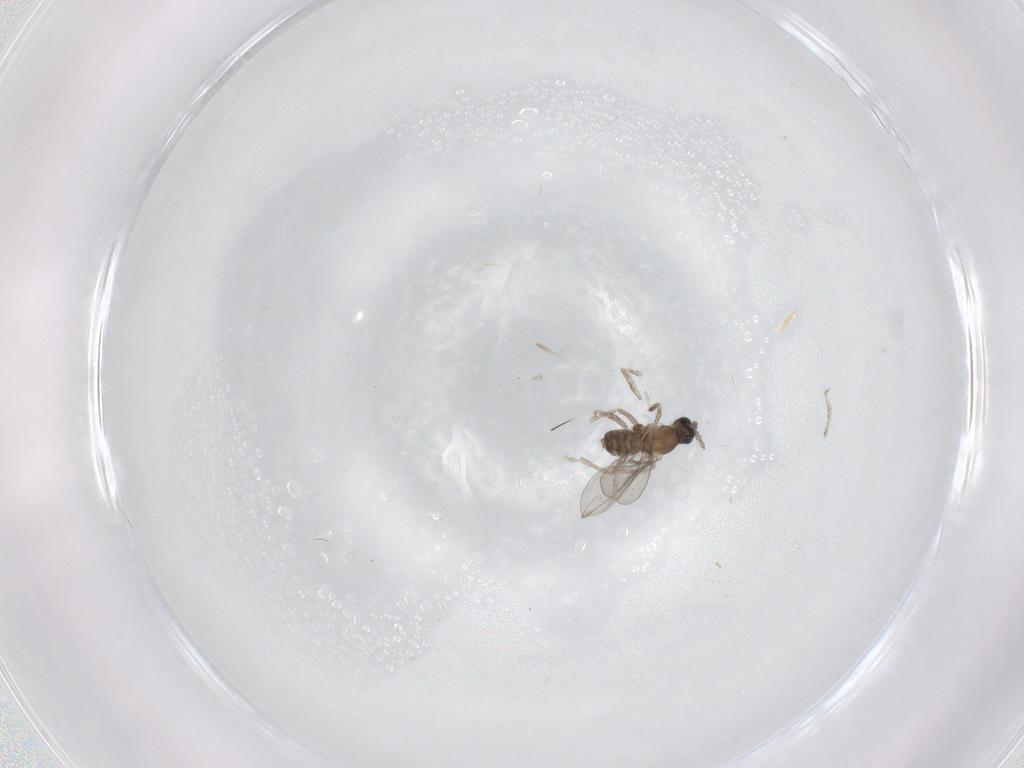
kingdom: Animalia
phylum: Arthropoda
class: Insecta
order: Diptera
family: Cecidomyiidae
